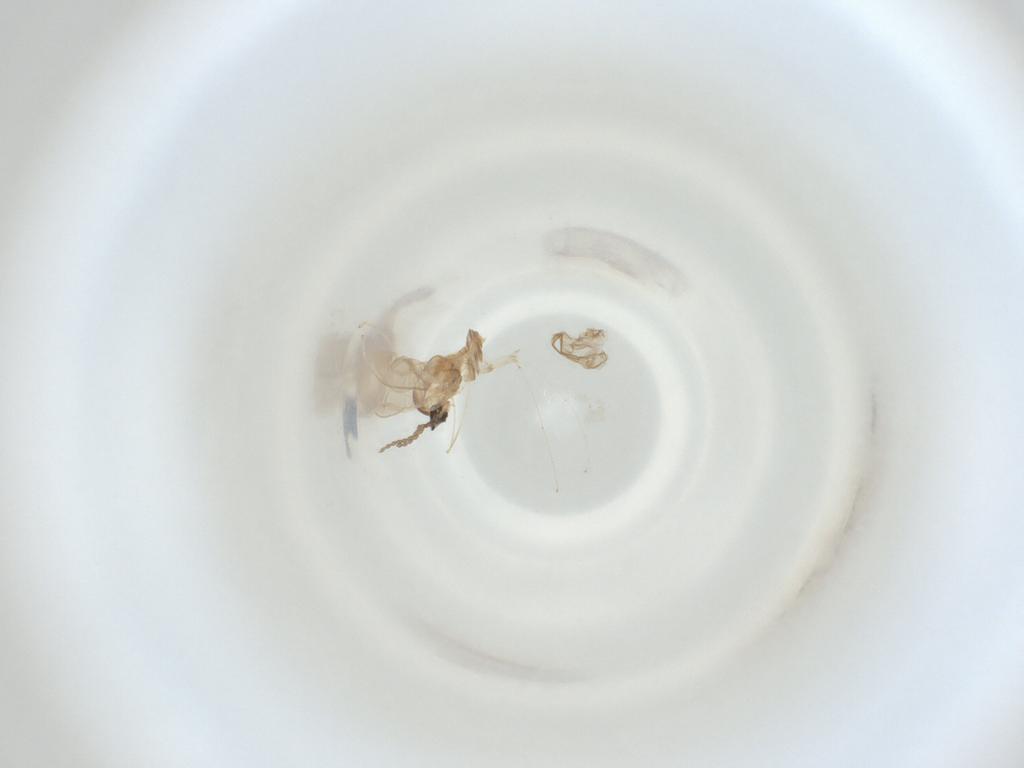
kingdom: Animalia
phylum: Arthropoda
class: Insecta
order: Diptera
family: Cecidomyiidae
